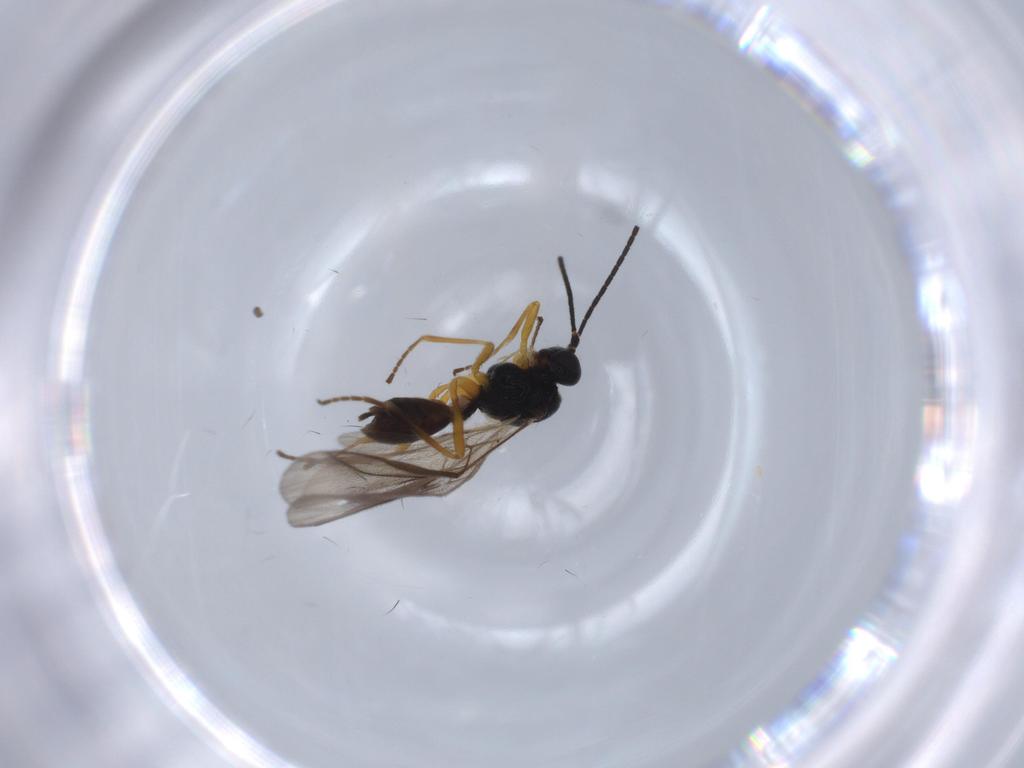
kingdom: Animalia
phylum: Arthropoda
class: Insecta
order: Hymenoptera
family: Braconidae
